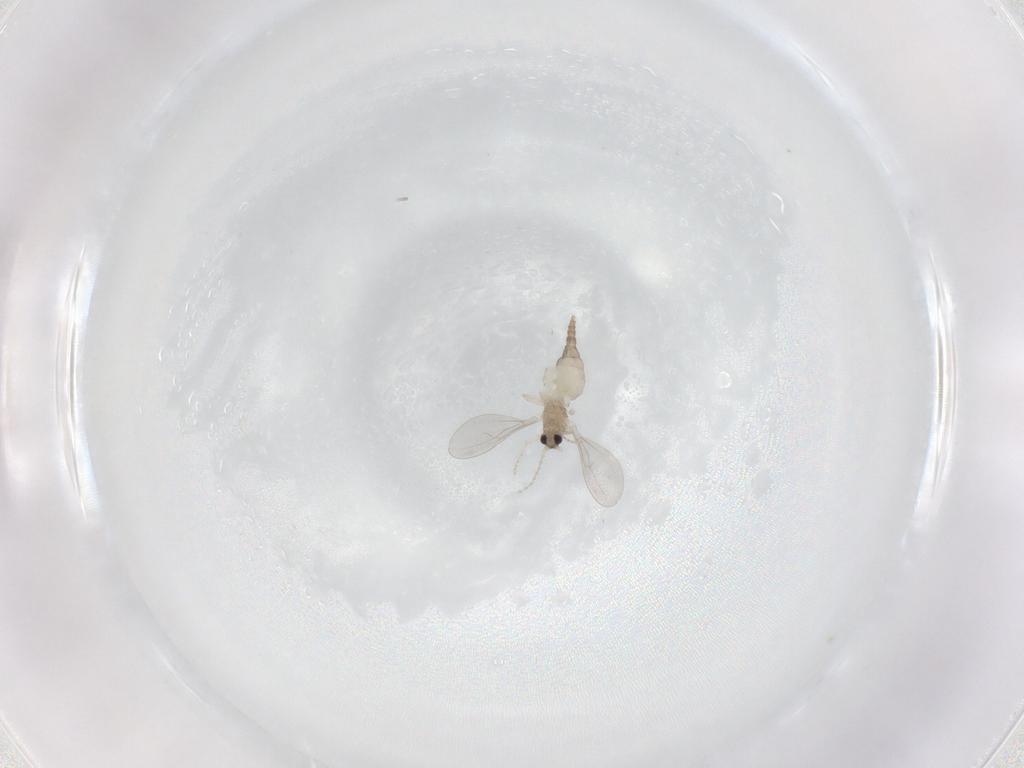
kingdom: Animalia
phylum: Arthropoda
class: Insecta
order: Diptera
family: Cecidomyiidae
